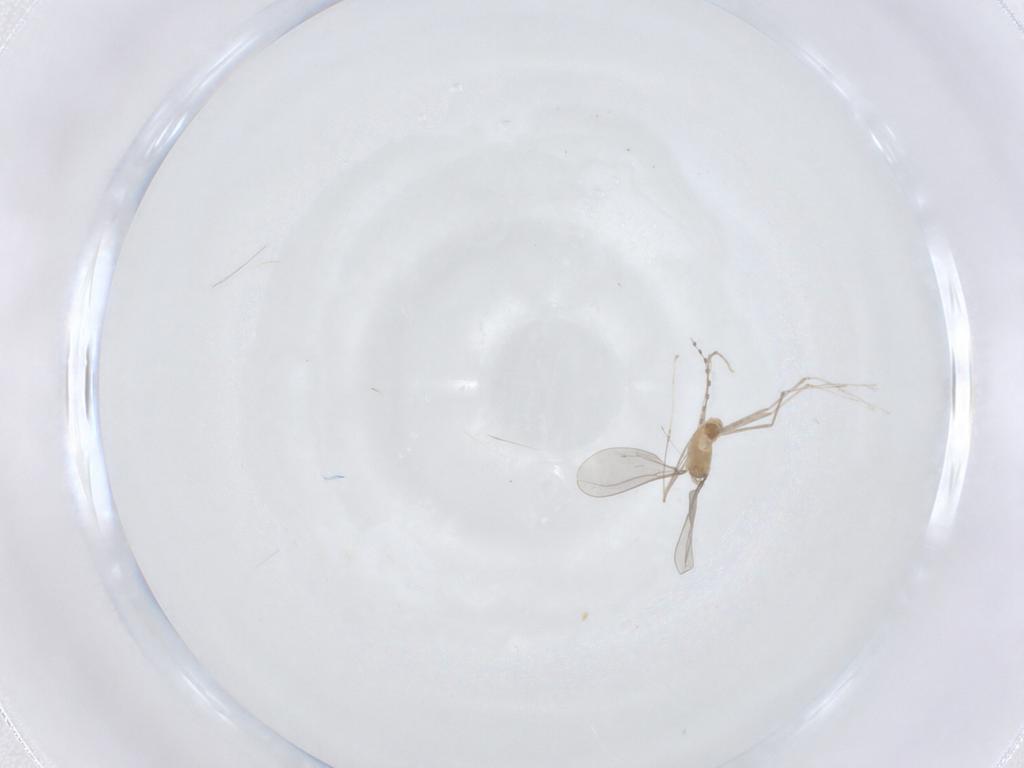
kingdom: Animalia
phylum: Arthropoda
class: Insecta
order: Diptera
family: Cecidomyiidae
